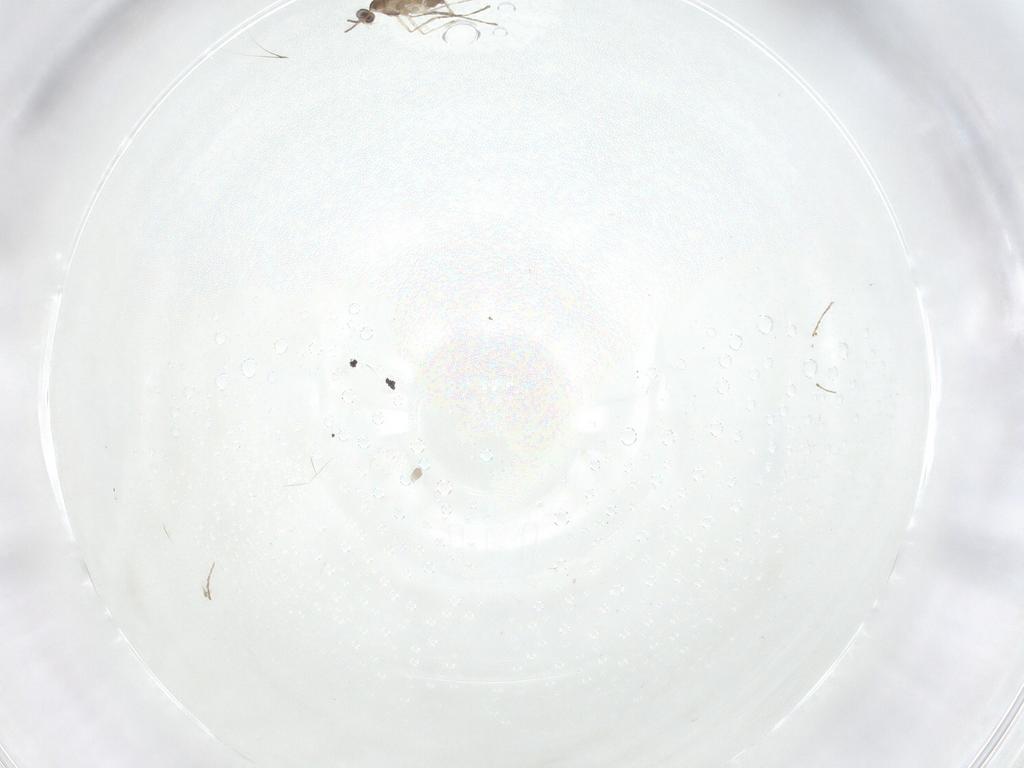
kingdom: Animalia
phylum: Arthropoda
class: Insecta
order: Diptera
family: Cecidomyiidae
